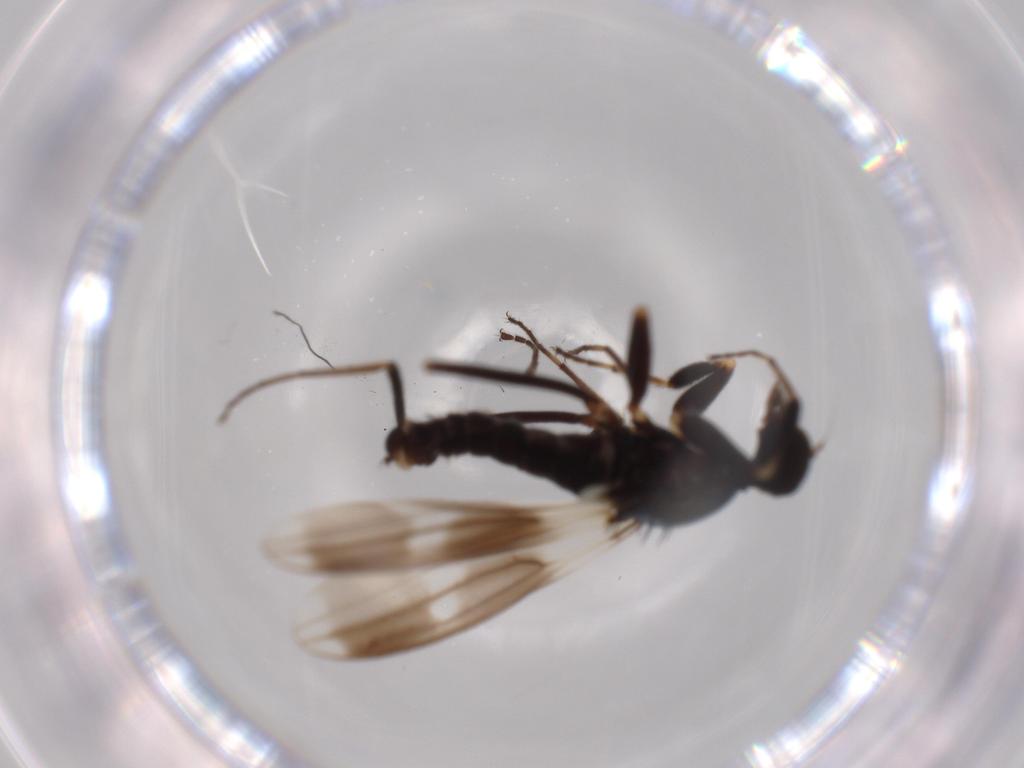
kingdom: Animalia
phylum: Arthropoda
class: Insecta
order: Diptera
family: Hybotidae
